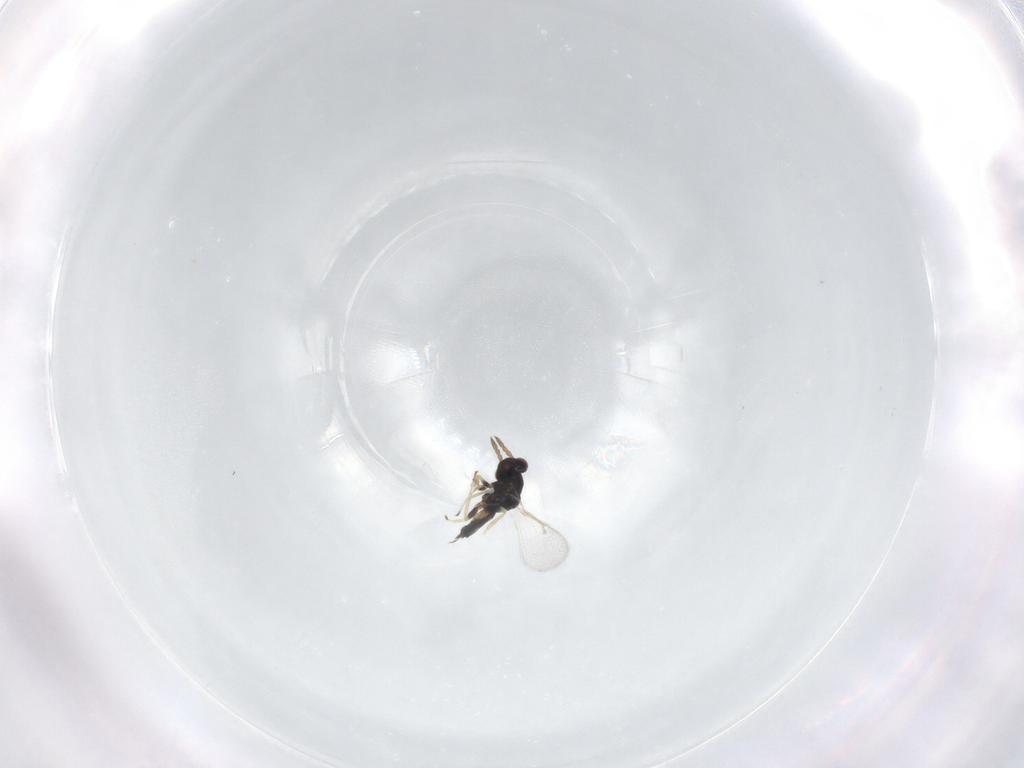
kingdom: Animalia
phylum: Arthropoda
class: Insecta
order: Hymenoptera
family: Eulophidae
